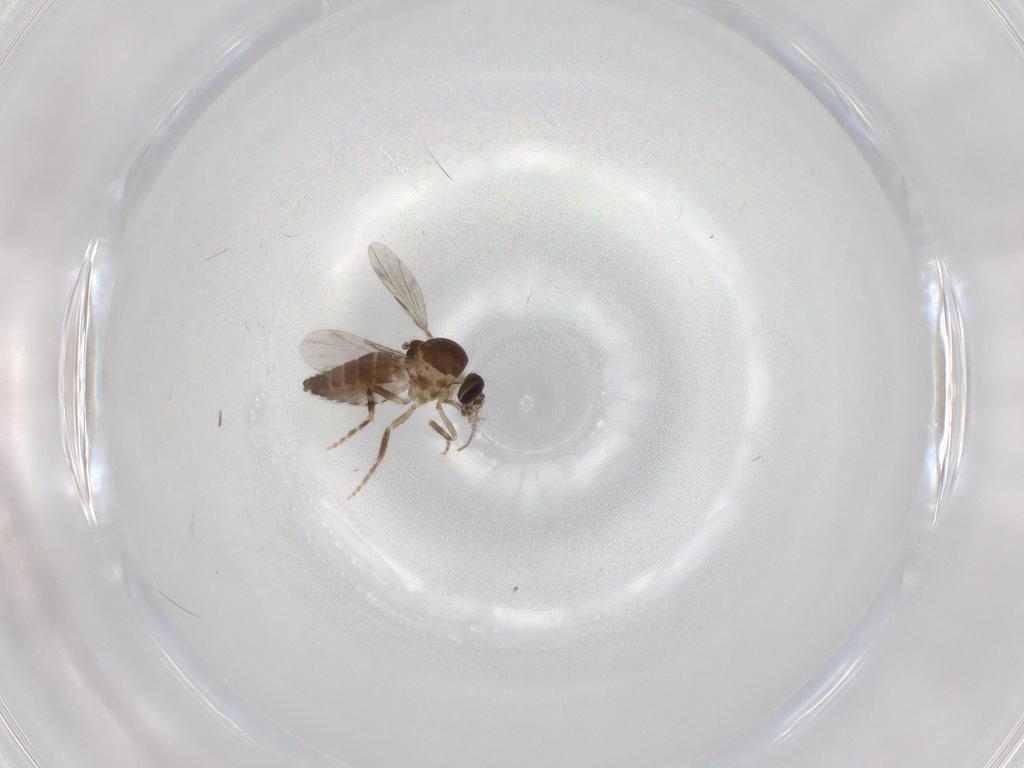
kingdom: Animalia
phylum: Arthropoda
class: Insecta
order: Diptera
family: Ceratopogonidae
